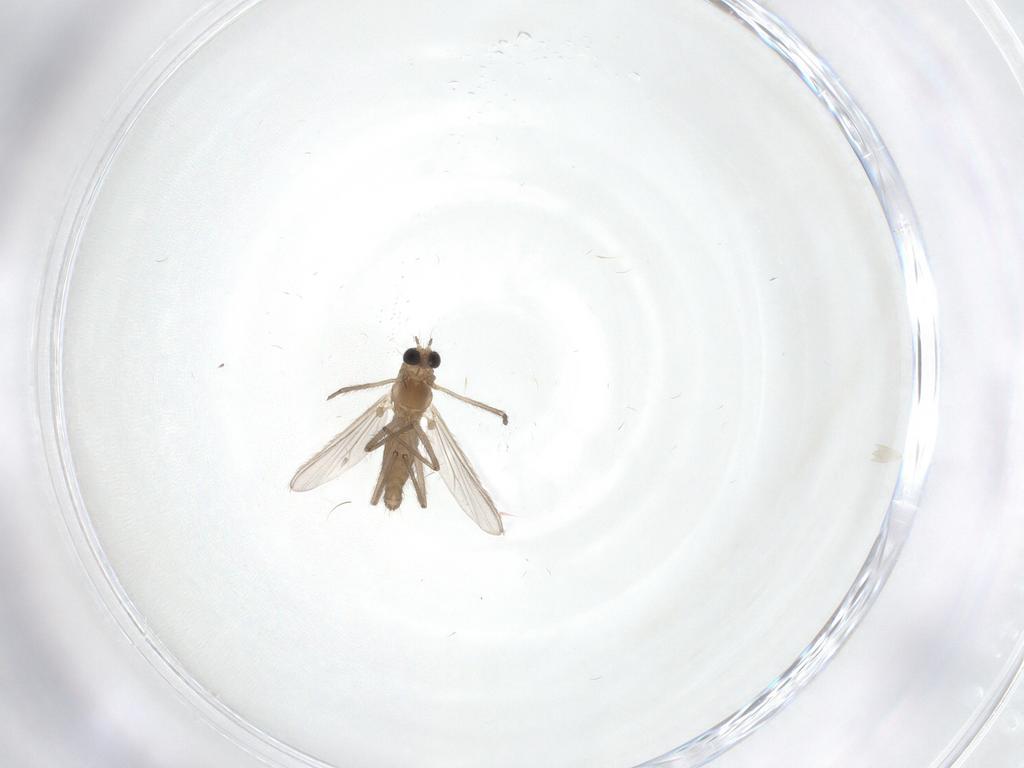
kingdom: Animalia
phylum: Arthropoda
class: Insecta
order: Diptera
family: Chironomidae
